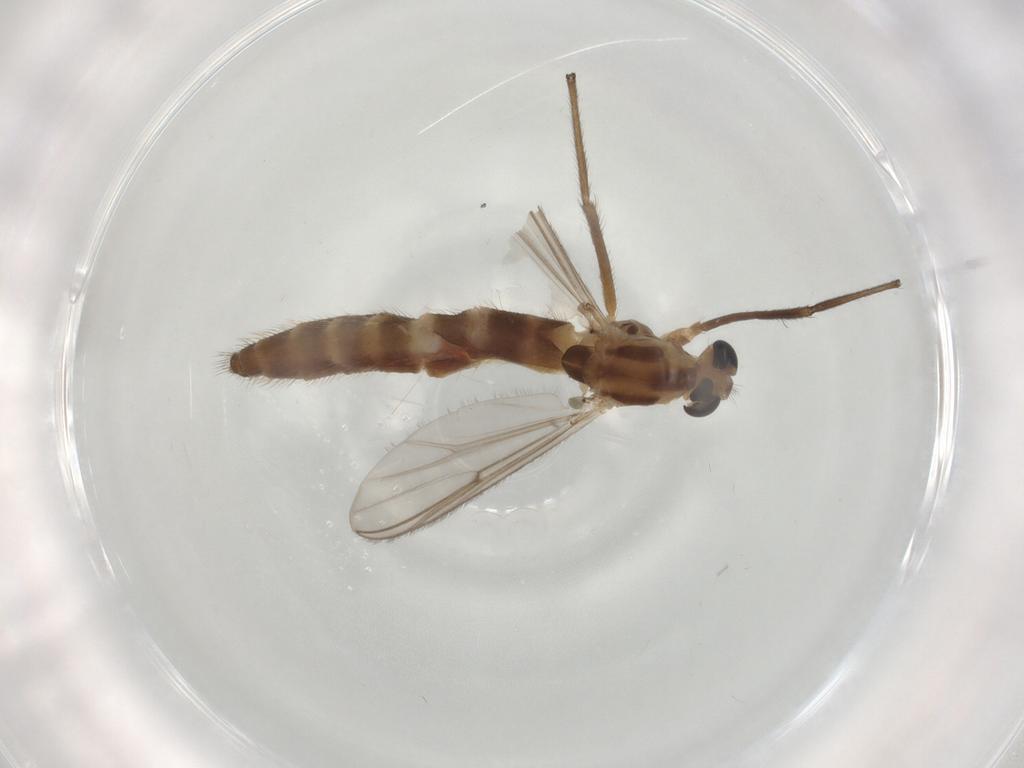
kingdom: Animalia
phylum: Arthropoda
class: Insecta
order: Diptera
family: Chironomidae
